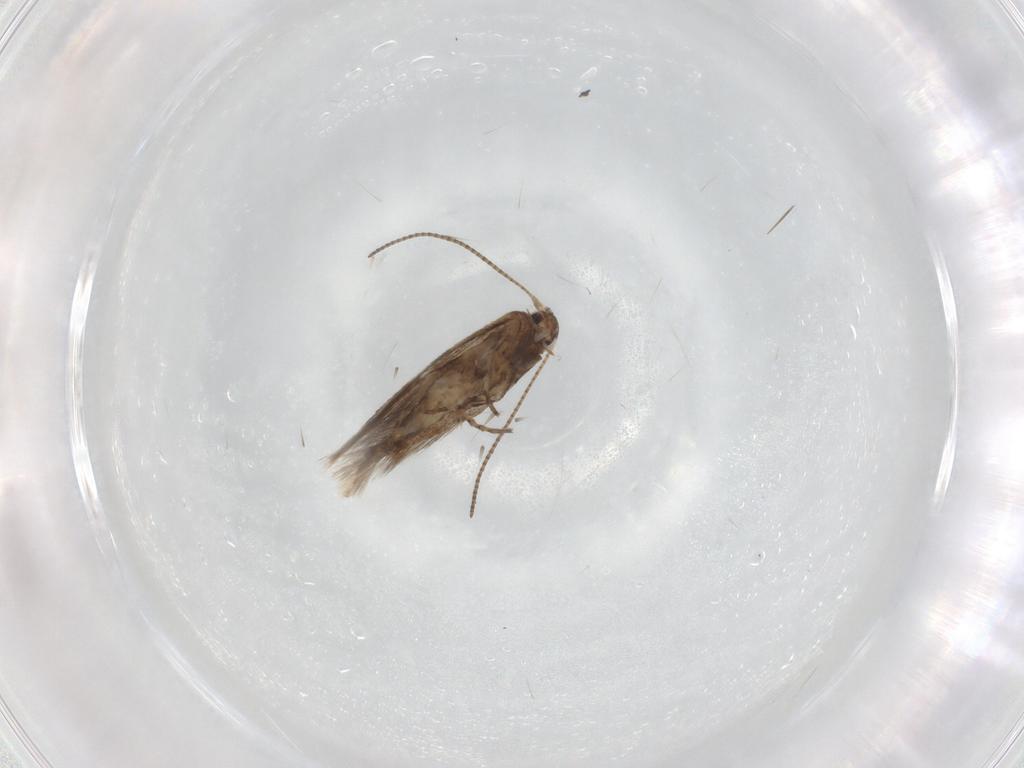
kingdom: Animalia
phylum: Arthropoda
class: Insecta
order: Lepidoptera
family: Gracillariidae
